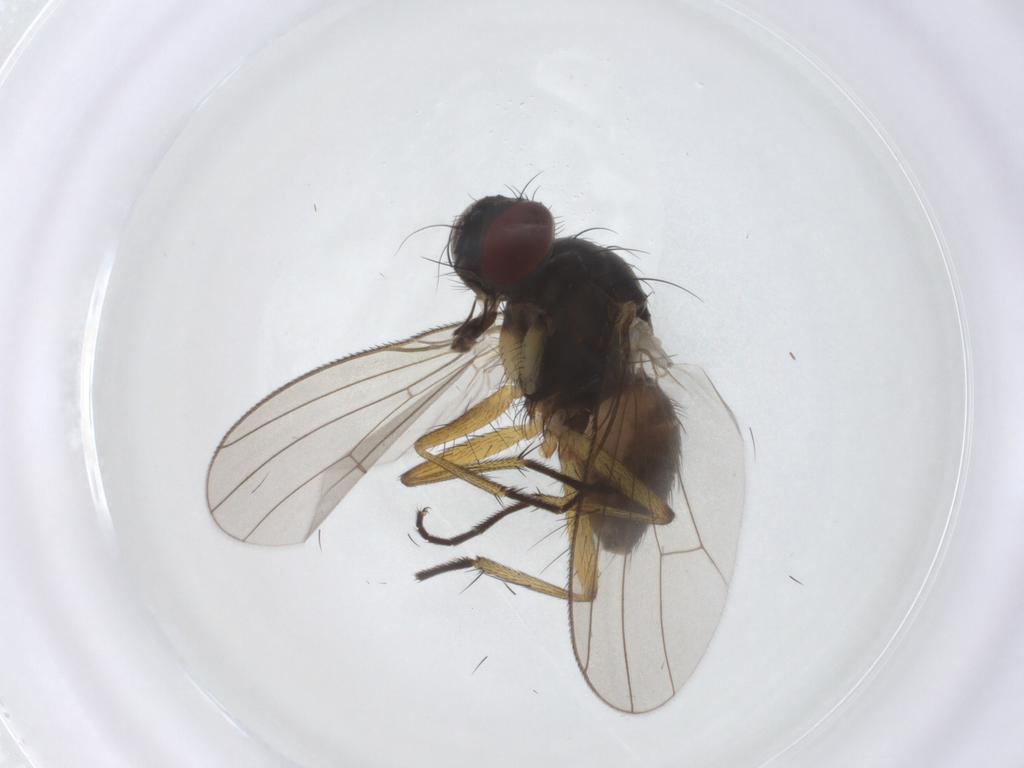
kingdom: Animalia
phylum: Arthropoda
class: Insecta
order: Diptera
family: Muscidae
